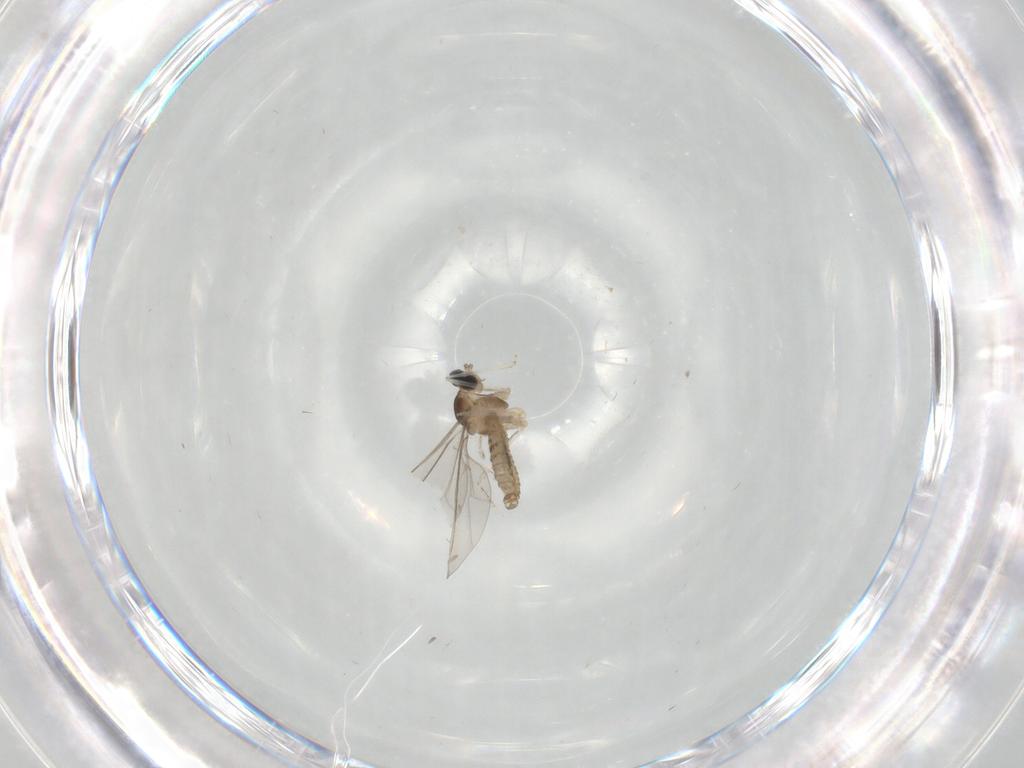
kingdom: Animalia
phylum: Arthropoda
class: Insecta
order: Diptera
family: Cecidomyiidae
